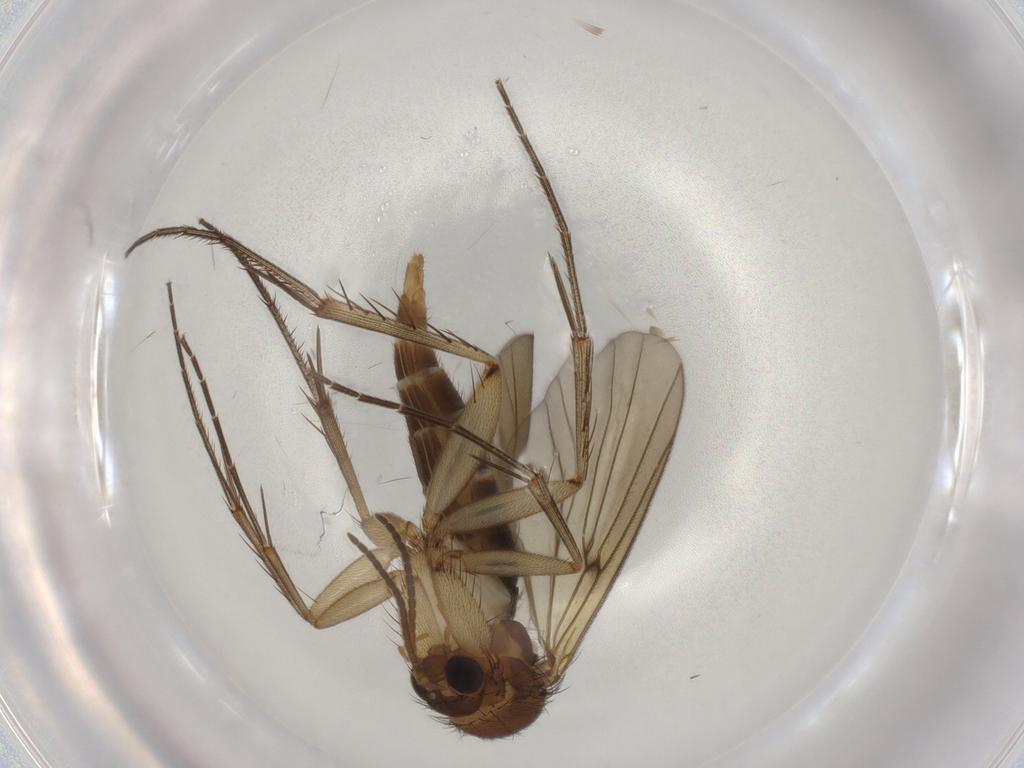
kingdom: Animalia
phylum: Arthropoda
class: Insecta
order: Diptera
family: Mycetophilidae
